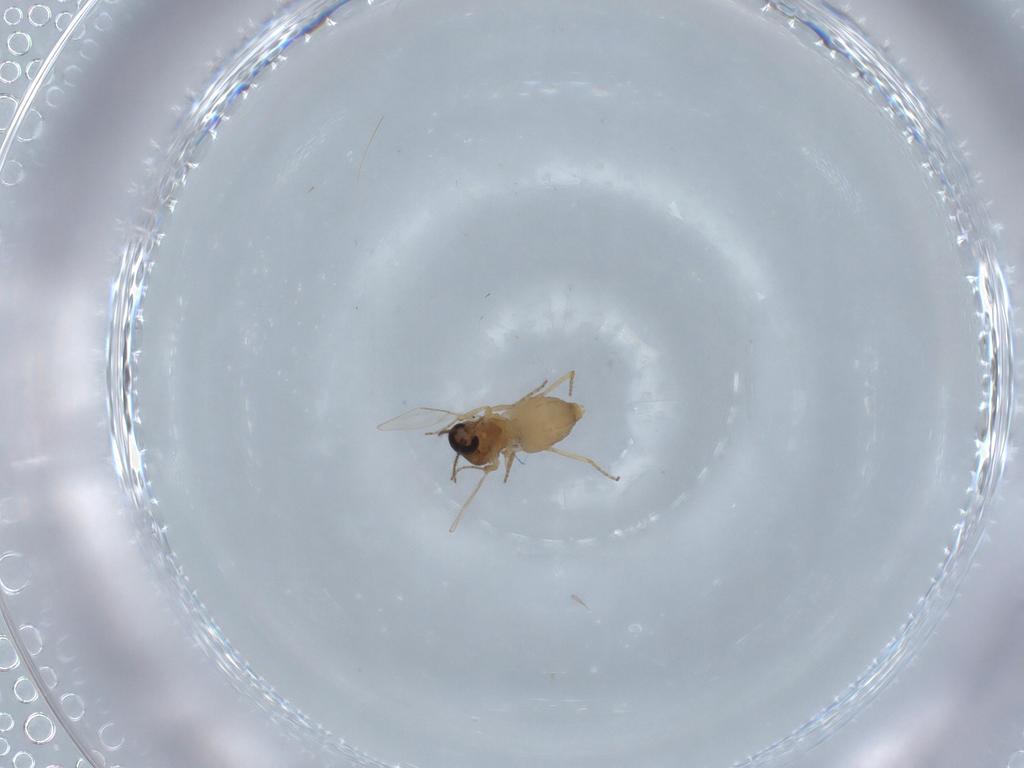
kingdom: Animalia
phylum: Arthropoda
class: Insecta
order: Diptera
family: Ceratopogonidae
